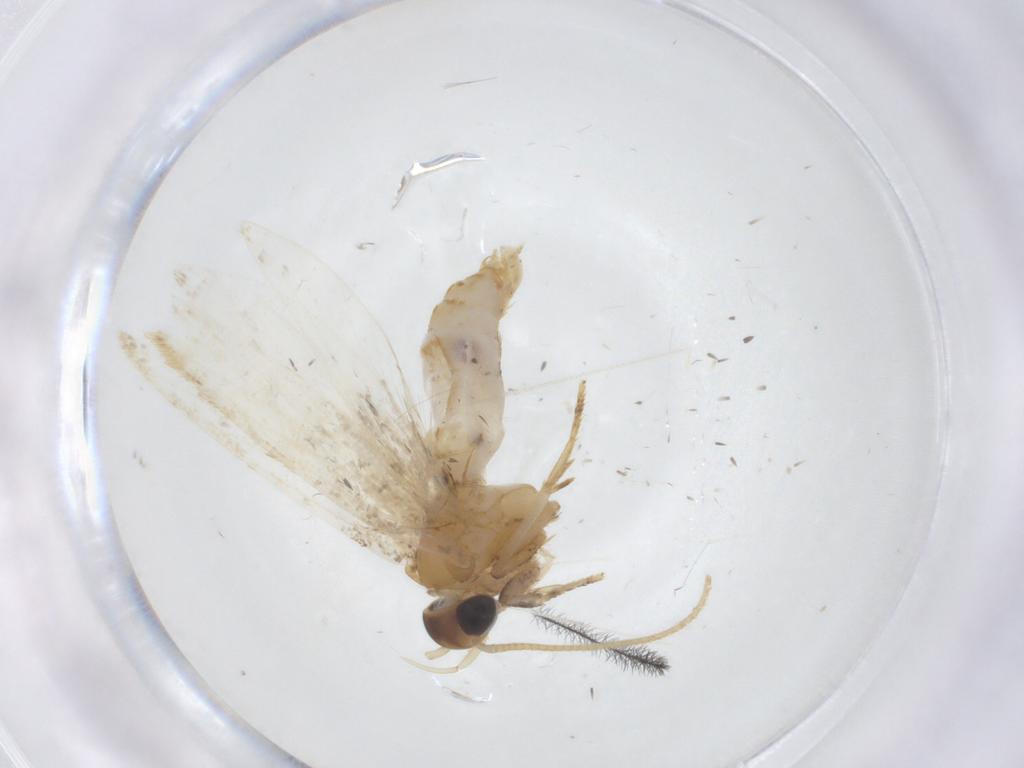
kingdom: Animalia
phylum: Arthropoda
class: Insecta
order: Lepidoptera
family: Oecophoridae
